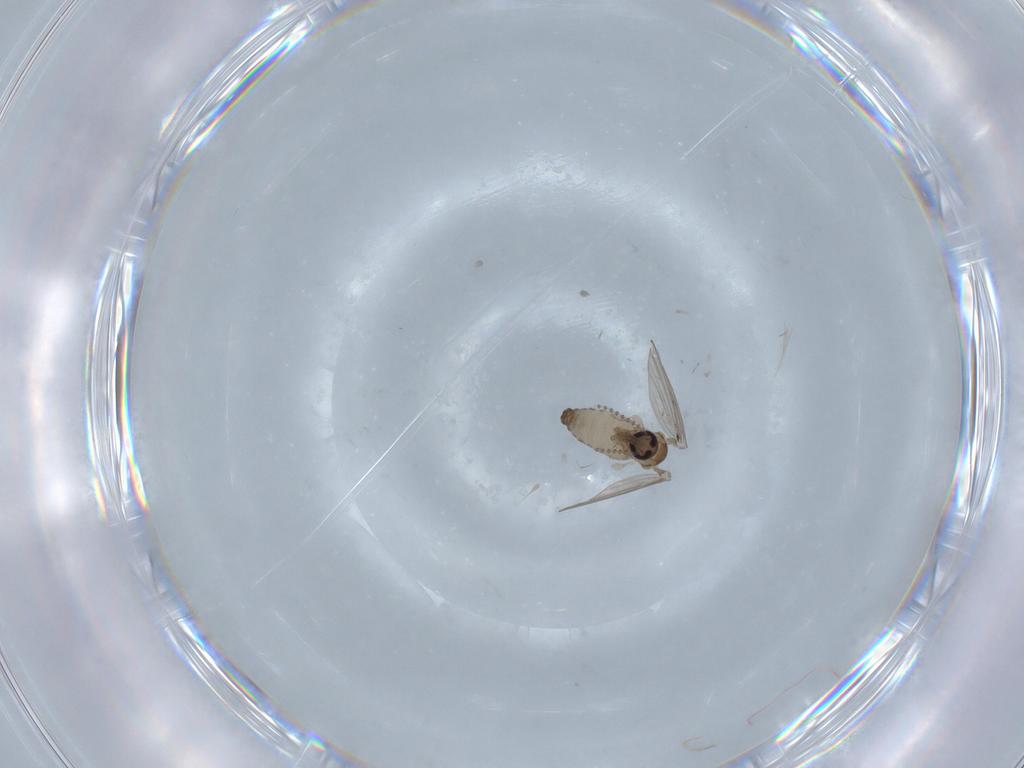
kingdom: Animalia
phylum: Arthropoda
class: Insecta
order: Diptera
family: Psychodidae
